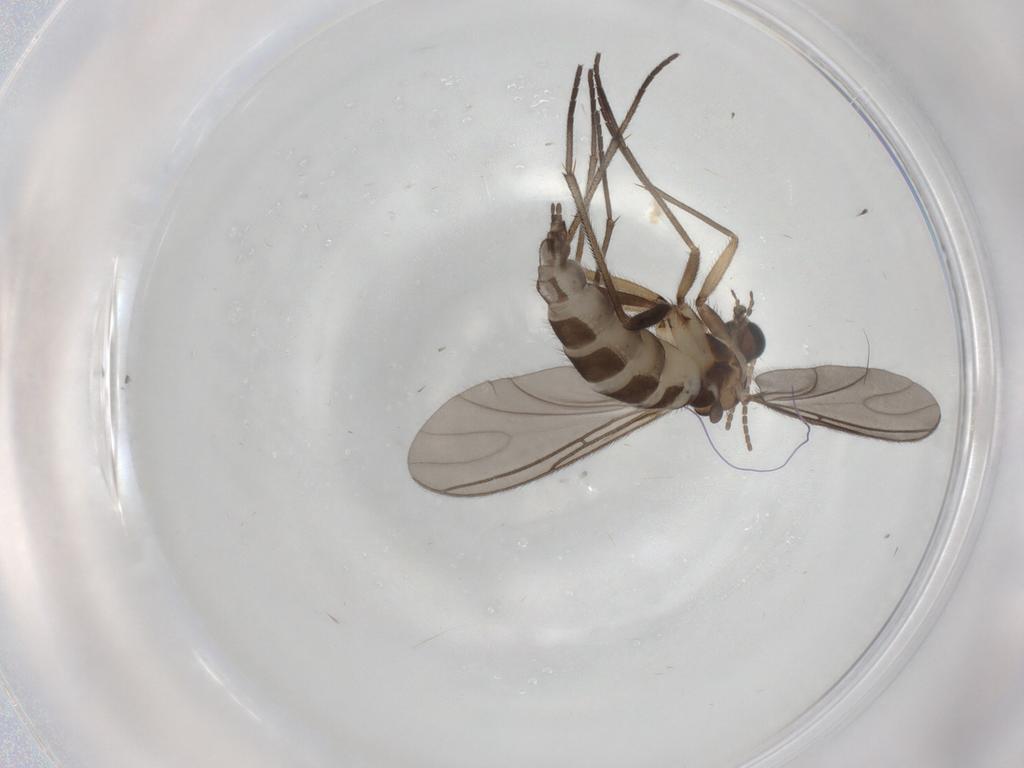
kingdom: Animalia
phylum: Arthropoda
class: Insecta
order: Diptera
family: Sciaridae
